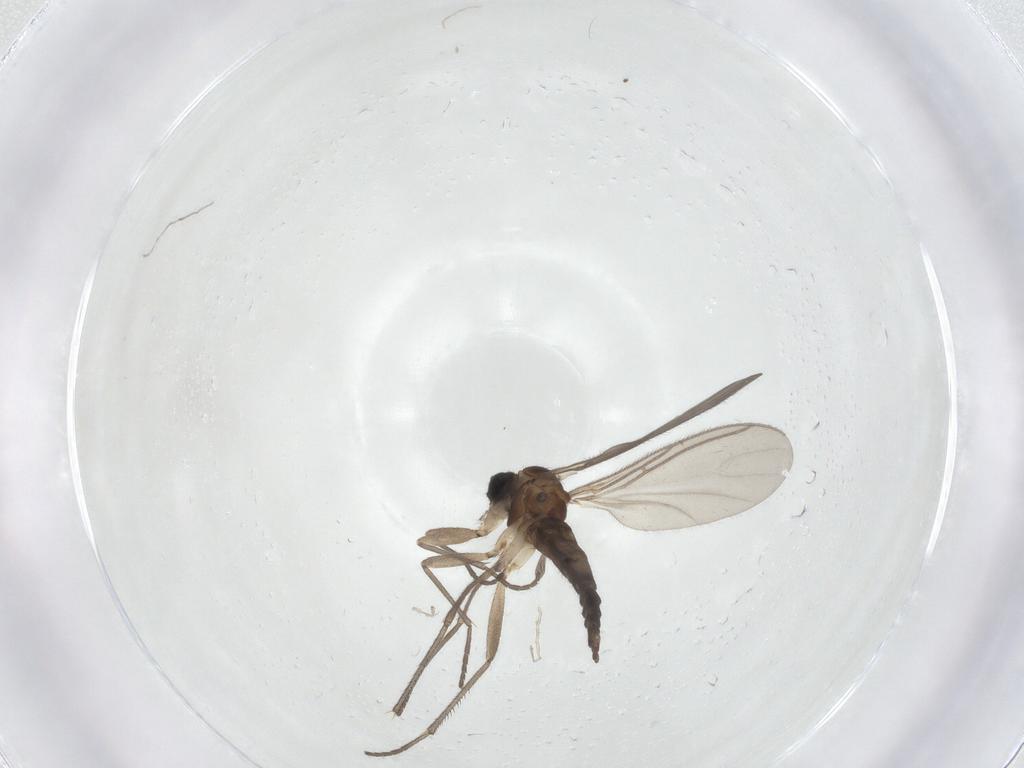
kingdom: Animalia
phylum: Arthropoda
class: Insecta
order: Diptera
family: Sciaridae
